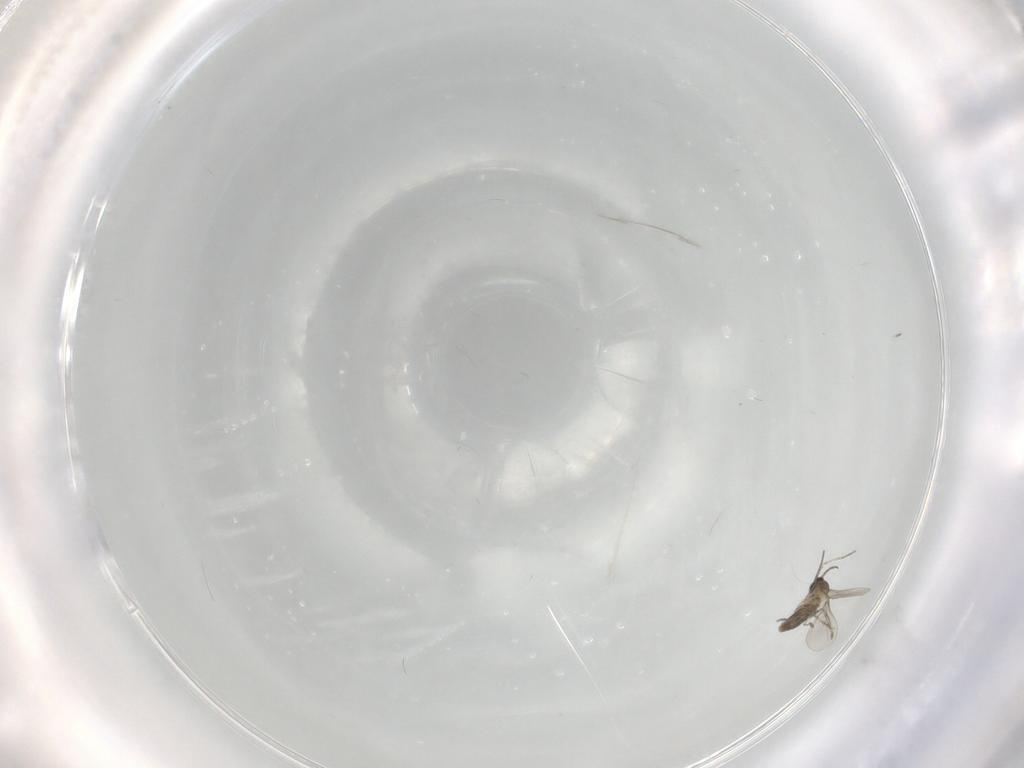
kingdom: Animalia
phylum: Arthropoda
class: Insecta
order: Diptera
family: Cecidomyiidae
